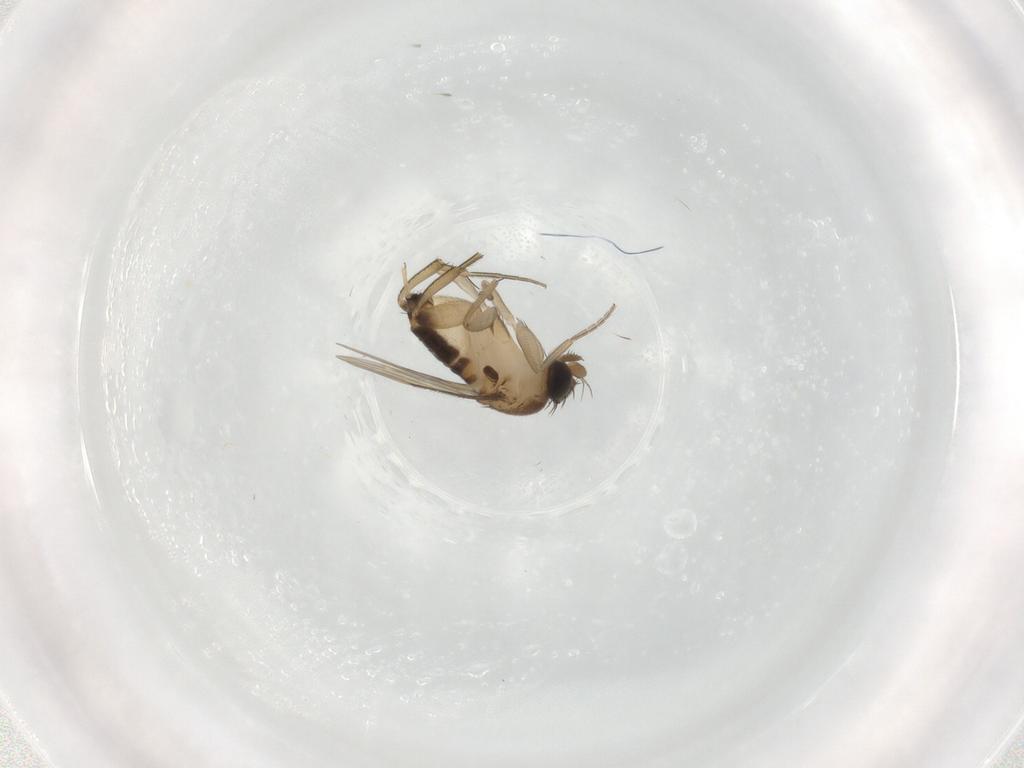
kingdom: Animalia
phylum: Arthropoda
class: Insecta
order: Diptera
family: Phoridae
